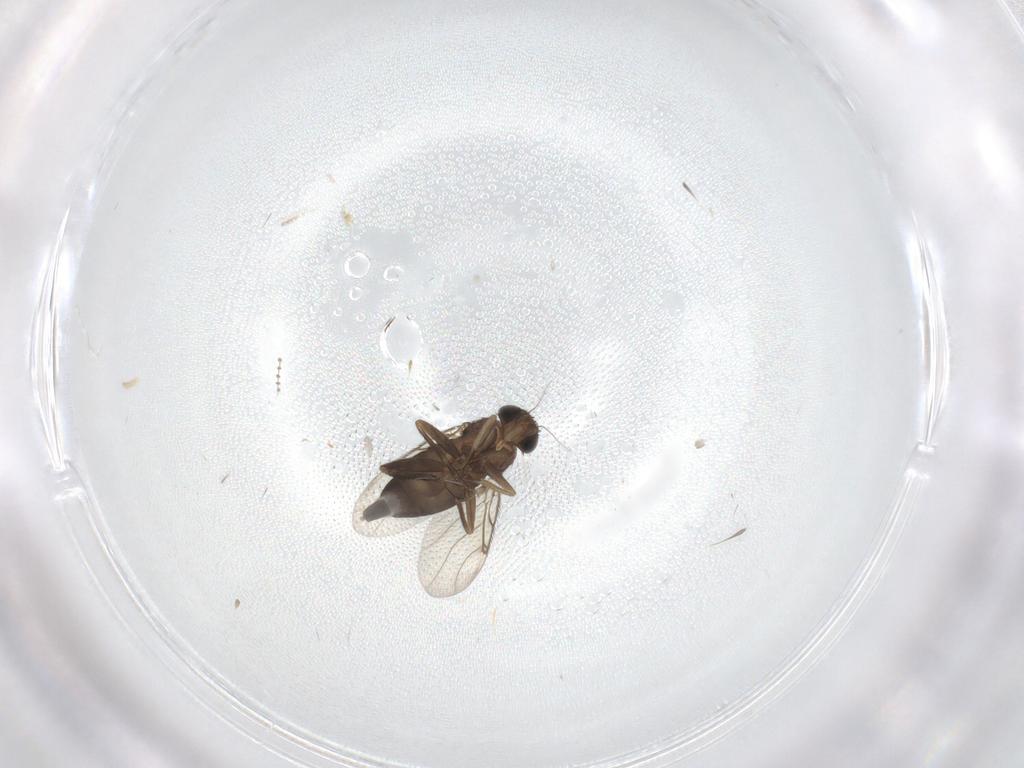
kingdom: Animalia
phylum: Arthropoda
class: Insecta
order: Diptera
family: Phoridae
